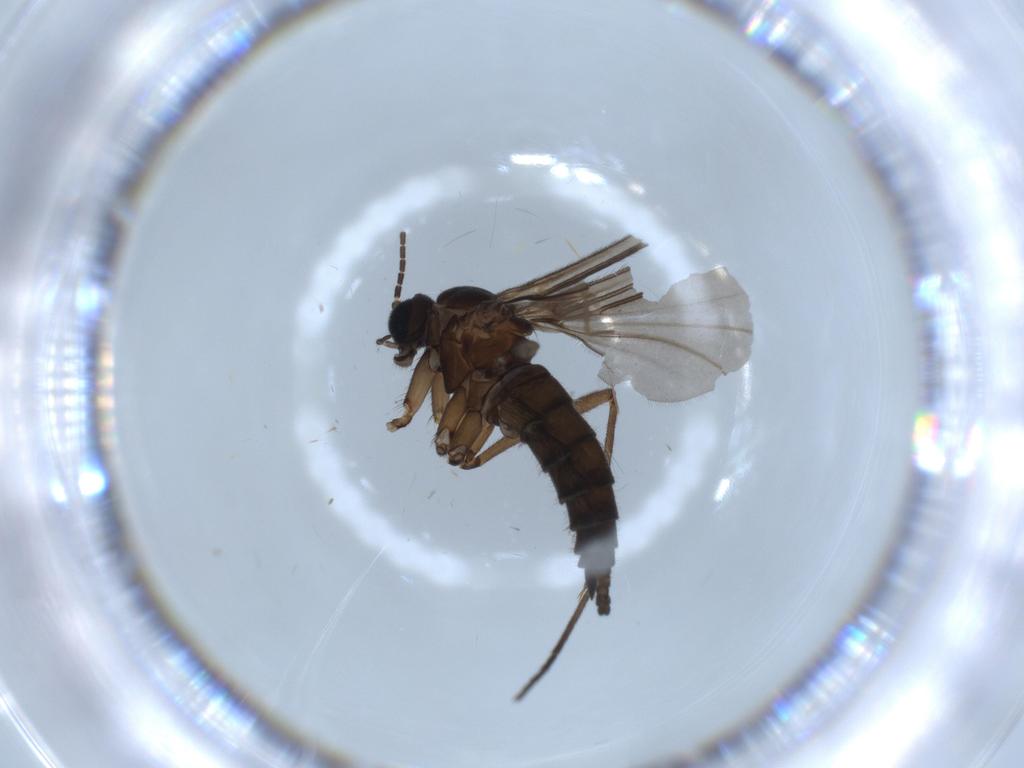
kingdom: Animalia
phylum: Arthropoda
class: Insecta
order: Diptera
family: Sciaridae
